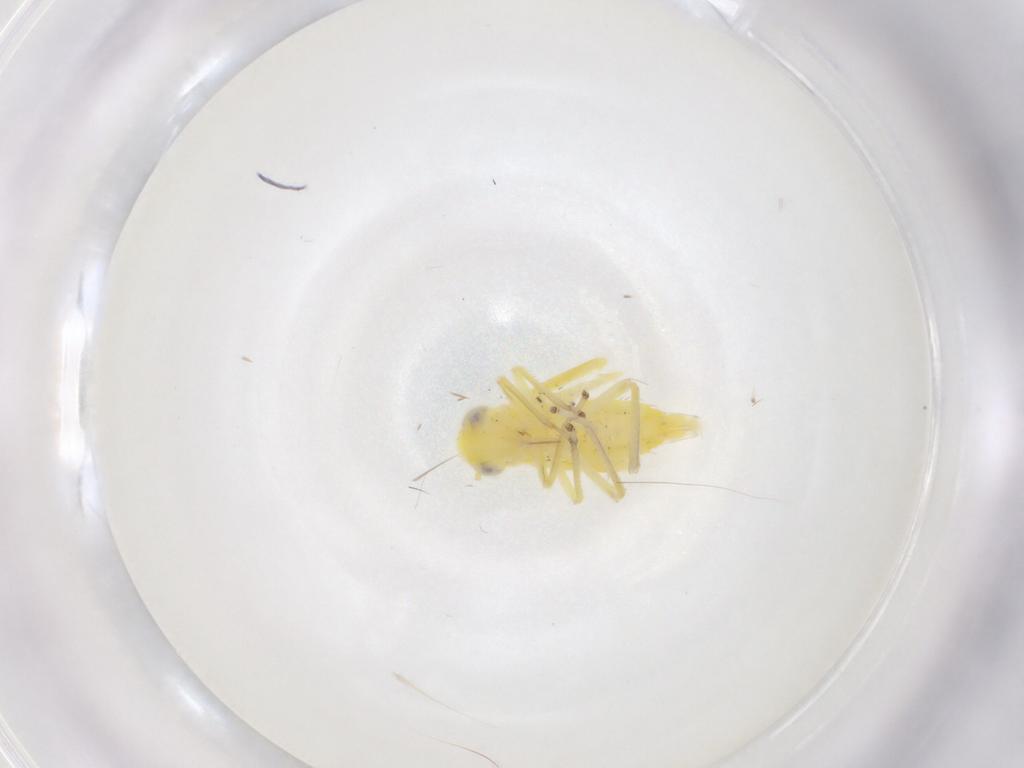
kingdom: Animalia
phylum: Arthropoda
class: Insecta
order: Hemiptera
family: Cicadellidae
